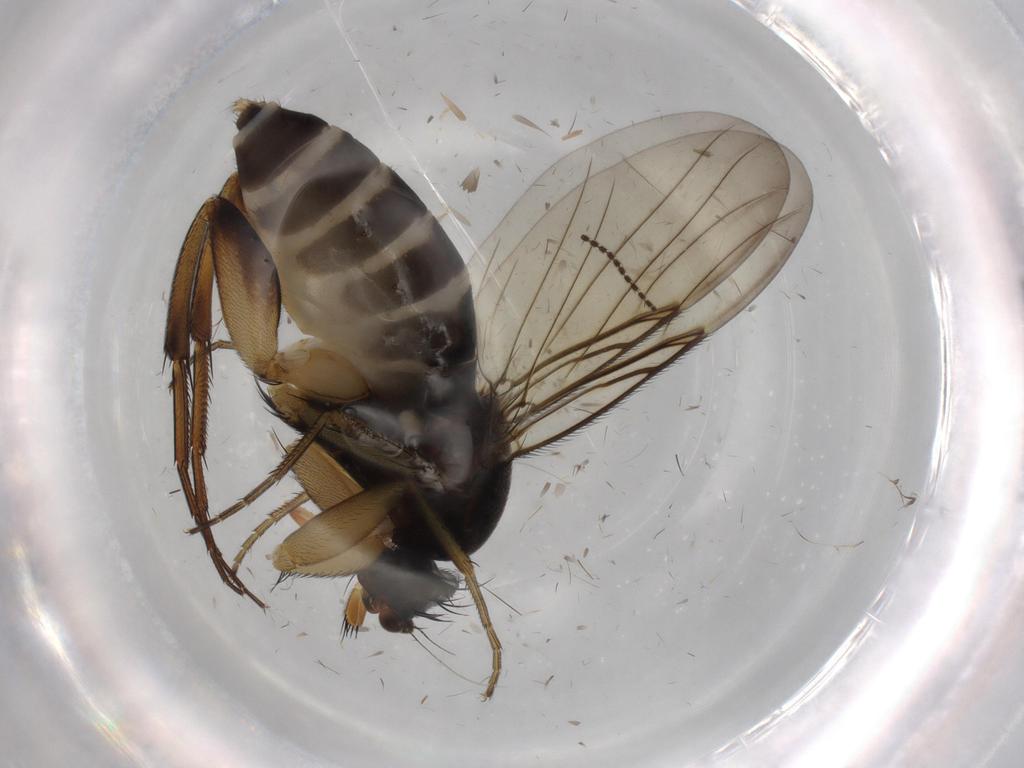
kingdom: Animalia
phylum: Arthropoda
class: Insecta
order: Diptera
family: Phoridae
